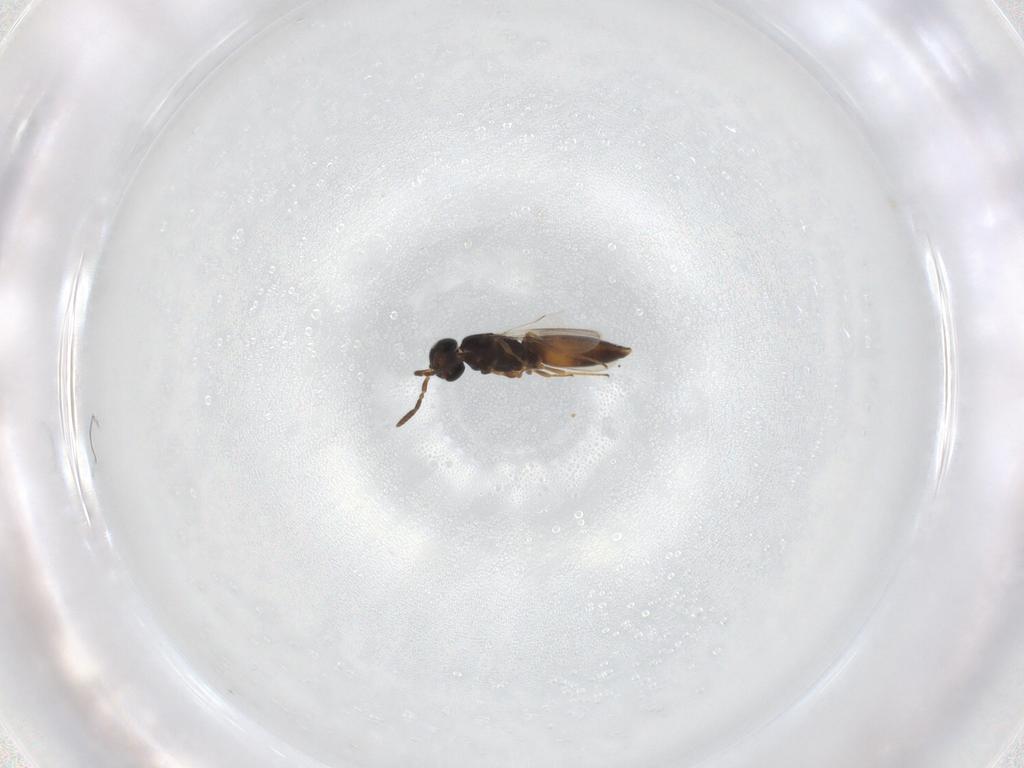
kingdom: Animalia
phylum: Arthropoda
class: Insecta
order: Hymenoptera
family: Scelionidae
